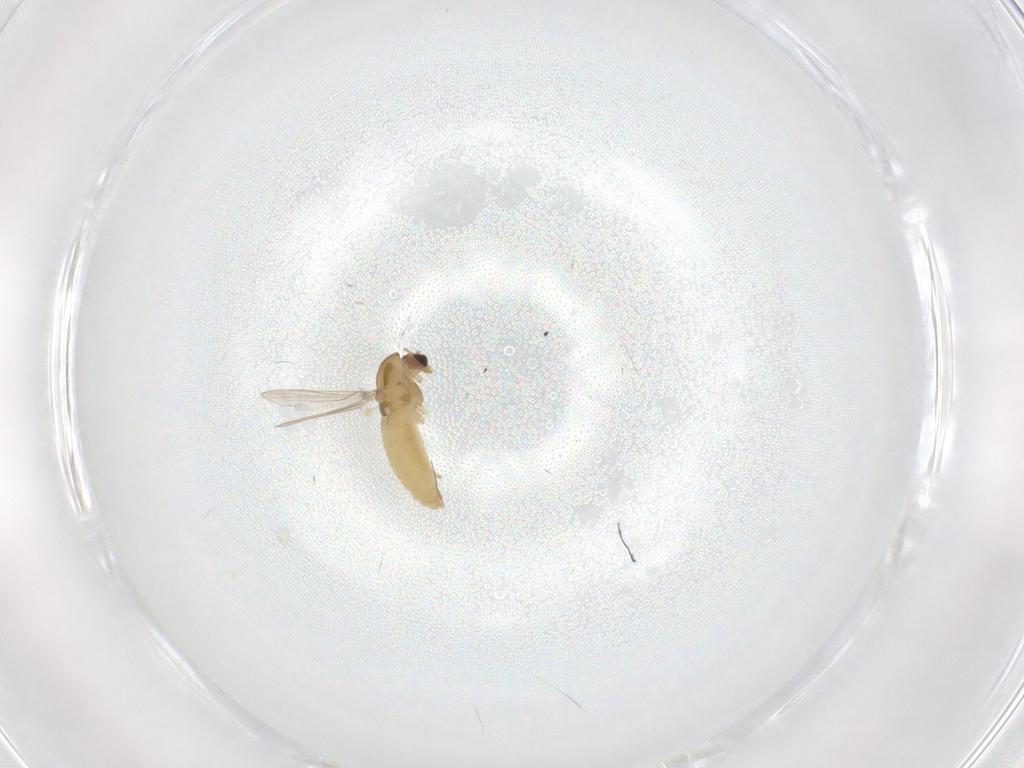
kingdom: Animalia
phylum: Arthropoda
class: Insecta
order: Diptera
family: Chironomidae
